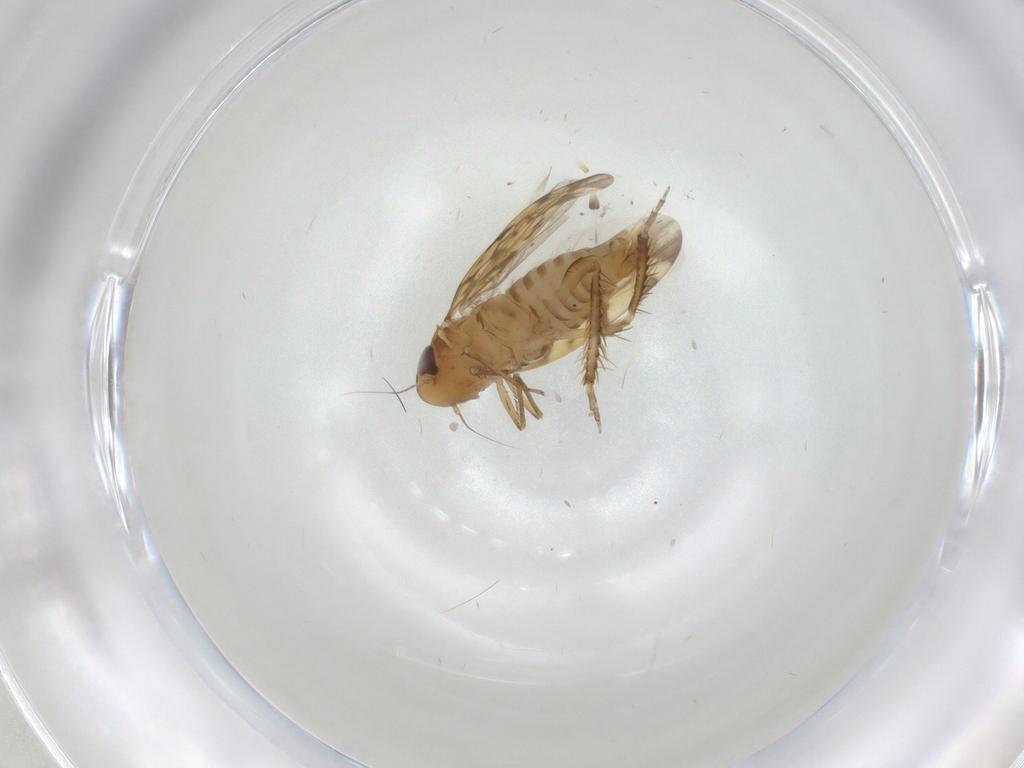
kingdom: Animalia
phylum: Arthropoda
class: Insecta
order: Hemiptera
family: Cicadellidae
